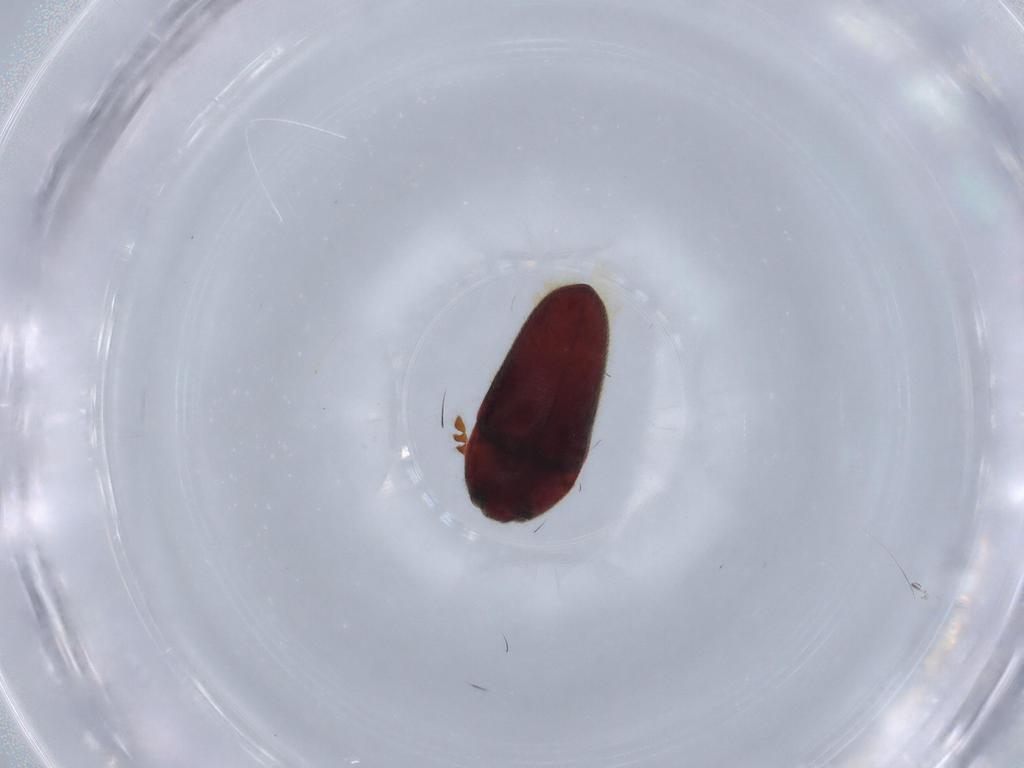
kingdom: Animalia
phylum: Arthropoda
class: Insecta
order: Coleoptera
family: Throscidae
